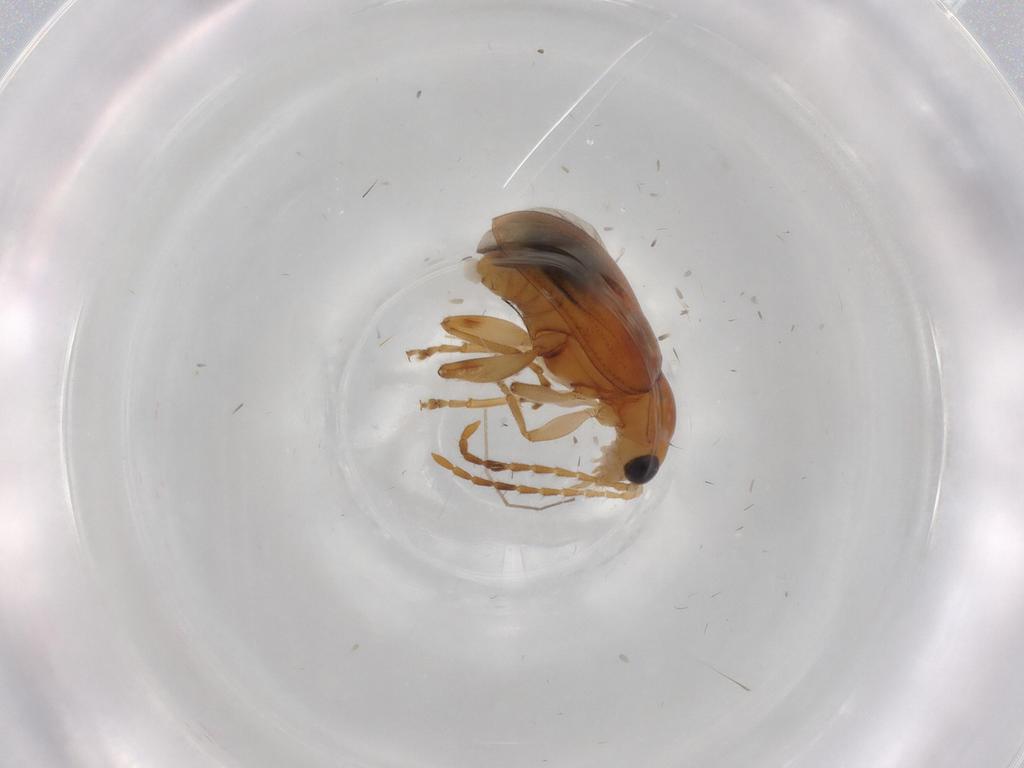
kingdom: Animalia
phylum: Arthropoda
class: Insecta
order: Coleoptera
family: Chrysomelidae
